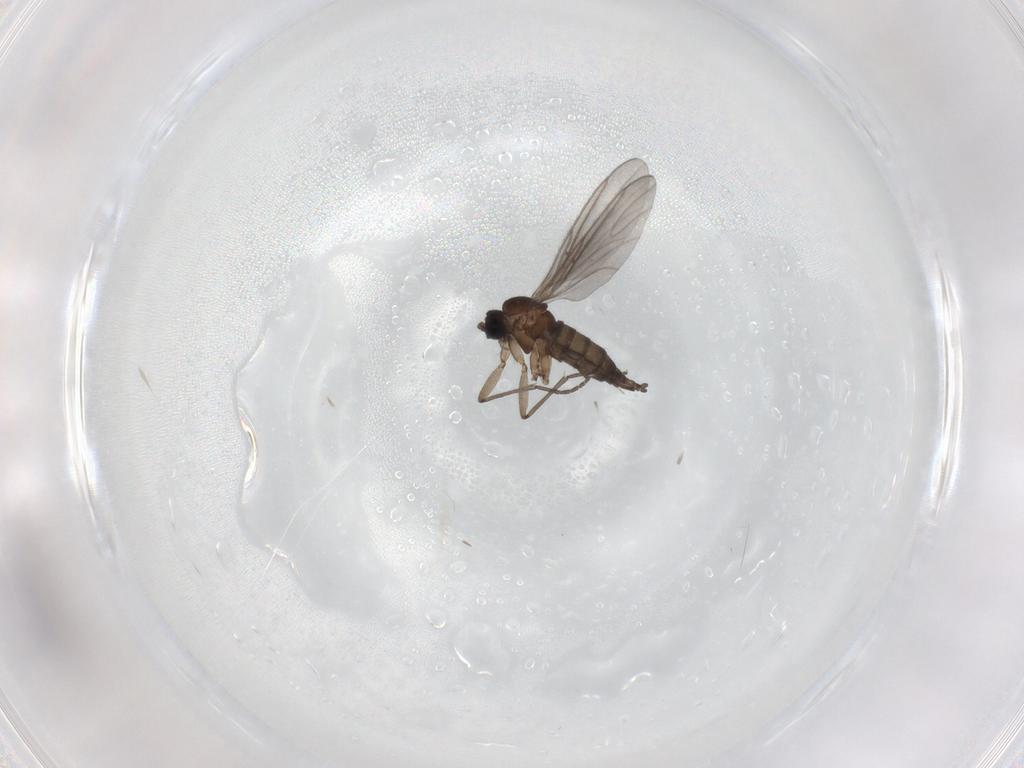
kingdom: Animalia
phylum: Arthropoda
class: Insecta
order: Diptera
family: Sciaridae
